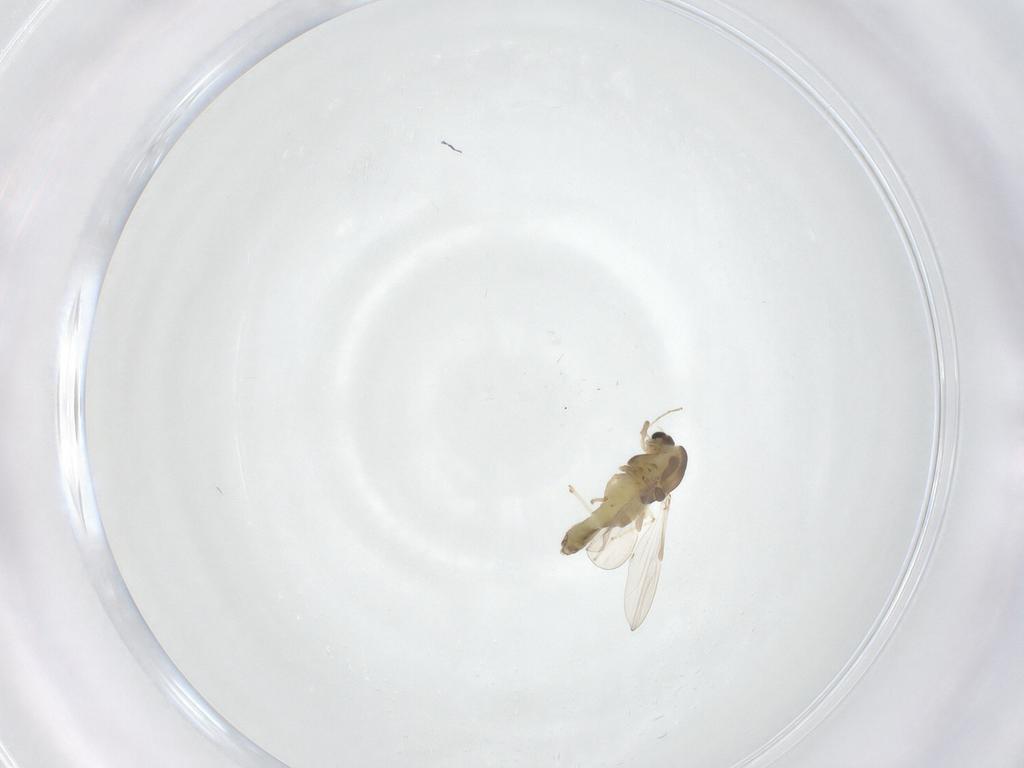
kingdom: Animalia
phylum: Arthropoda
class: Insecta
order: Diptera
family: Chironomidae
